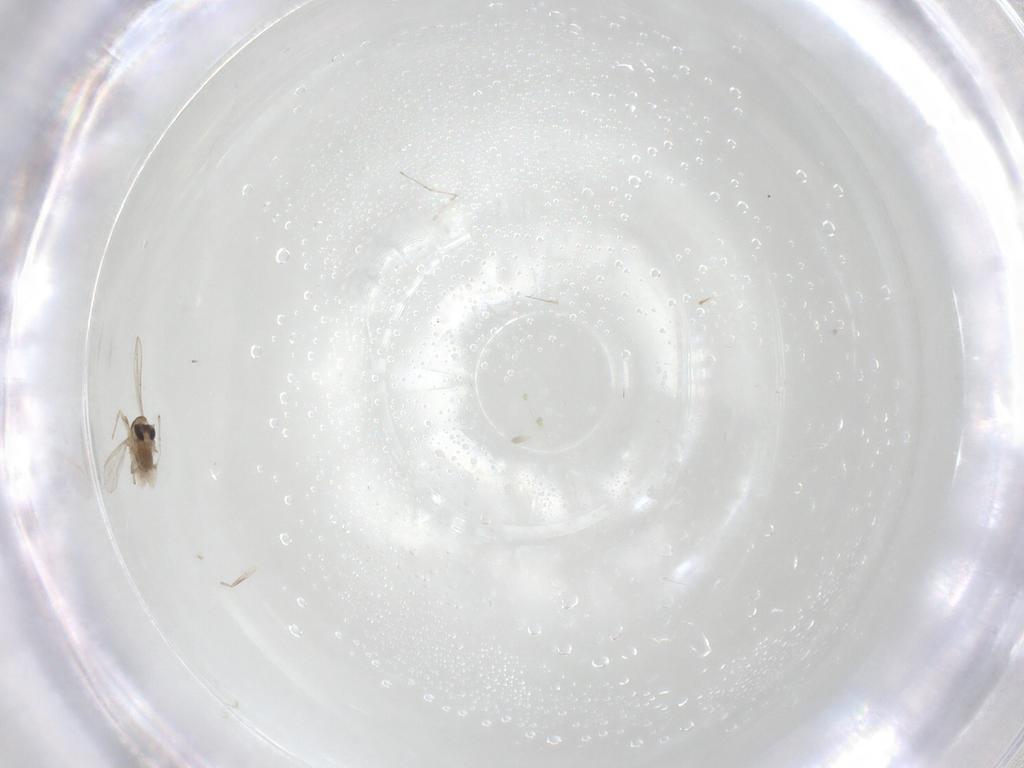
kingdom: Animalia
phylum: Arthropoda
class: Insecta
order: Diptera
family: Chironomidae
